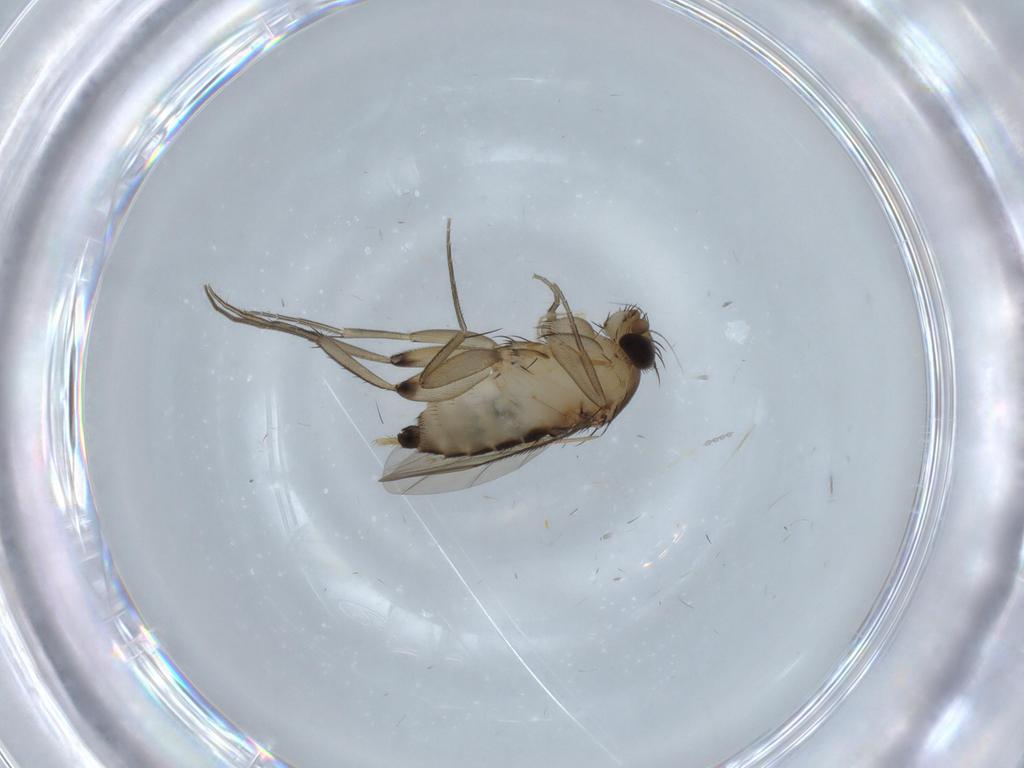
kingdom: Animalia
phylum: Arthropoda
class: Insecta
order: Diptera
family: Cecidomyiidae
